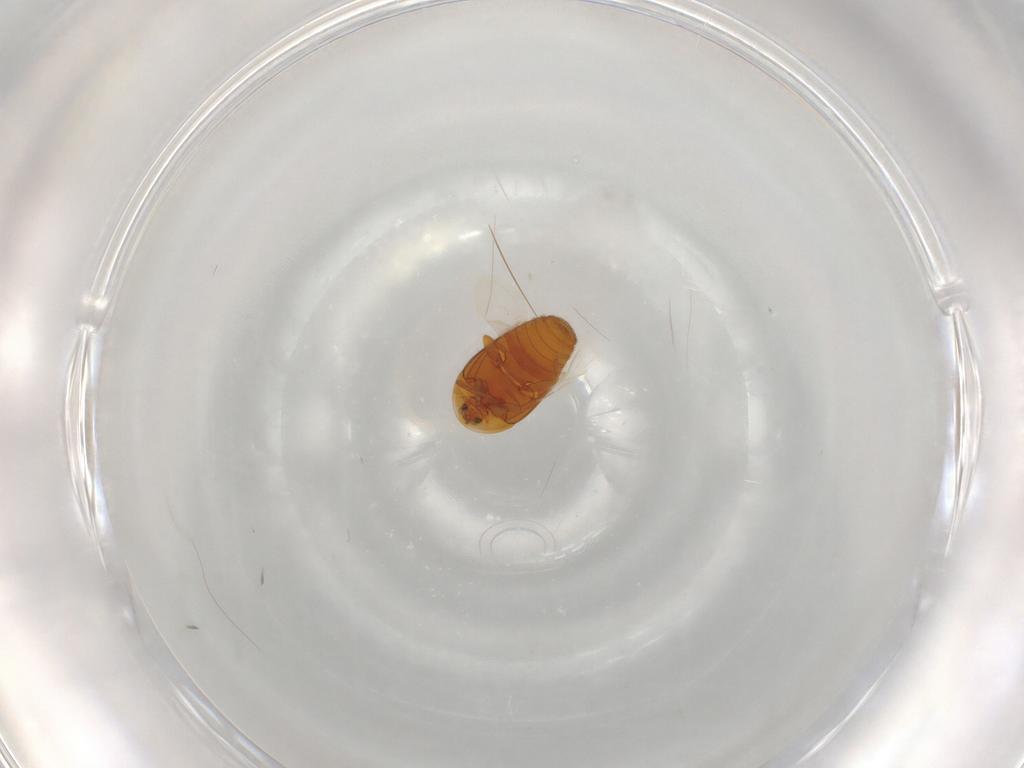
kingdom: Animalia
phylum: Arthropoda
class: Insecta
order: Coleoptera
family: Corylophidae
